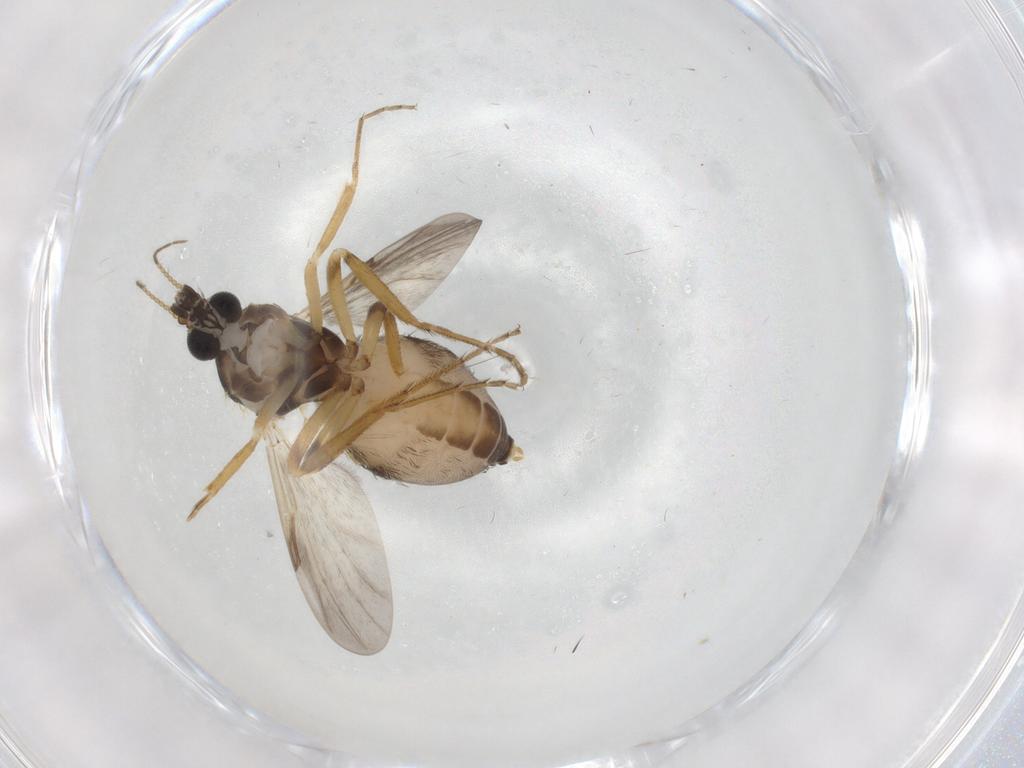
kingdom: Animalia
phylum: Arthropoda
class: Insecta
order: Diptera
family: Ceratopogonidae
